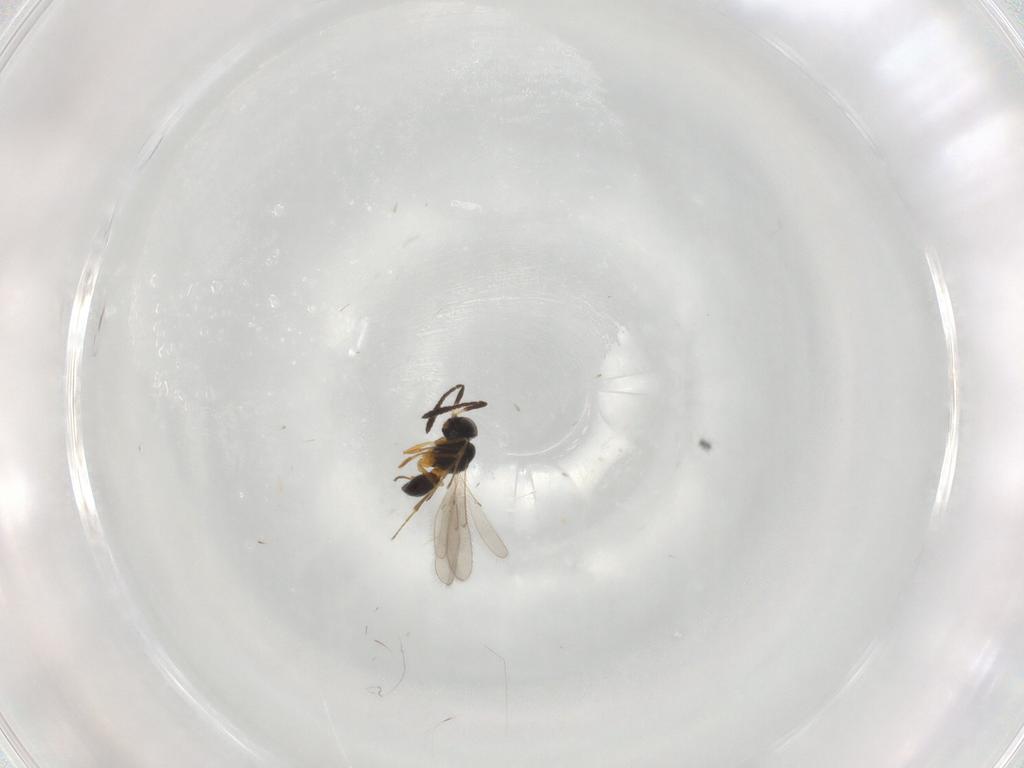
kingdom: Animalia
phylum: Arthropoda
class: Insecta
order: Hymenoptera
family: Scelionidae
